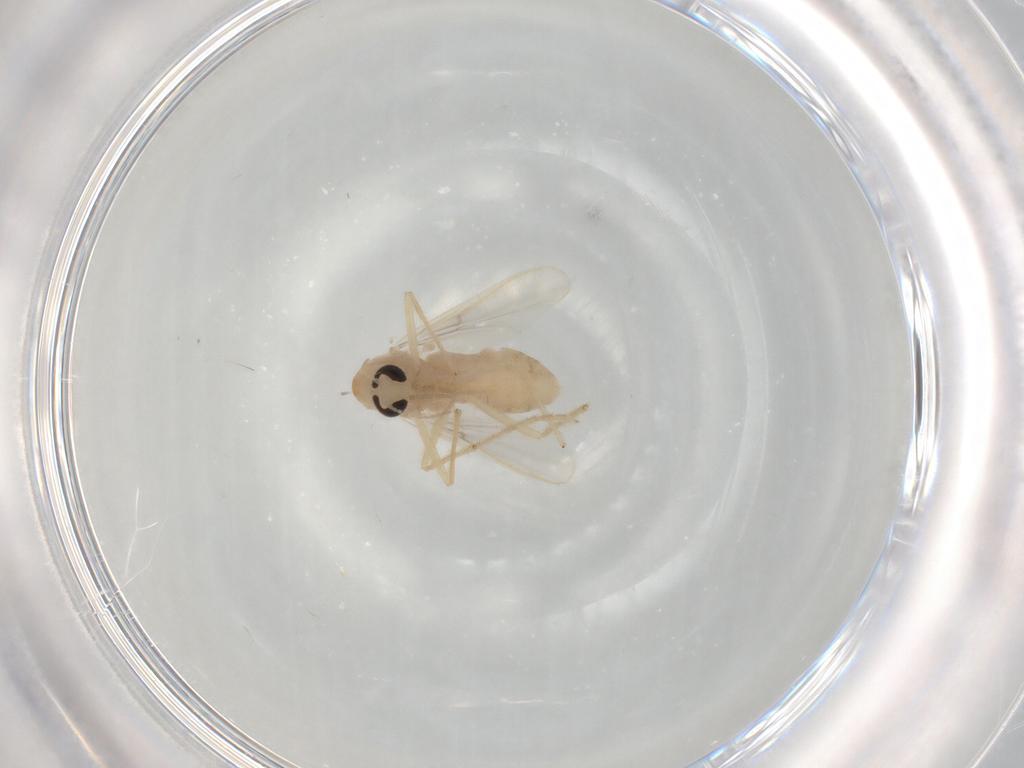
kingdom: Animalia
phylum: Arthropoda
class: Insecta
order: Diptera
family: Chironomidae
